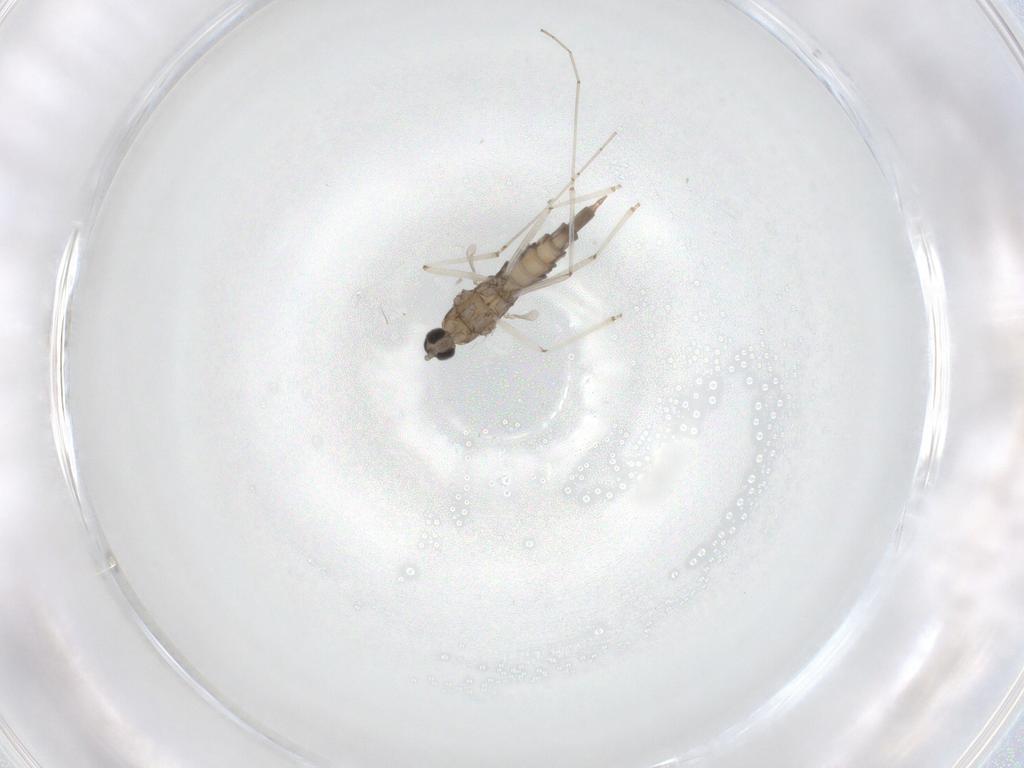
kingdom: Animalia
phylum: Arthropoda
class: Insecta
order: Diptera
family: Cecidomyiidae
